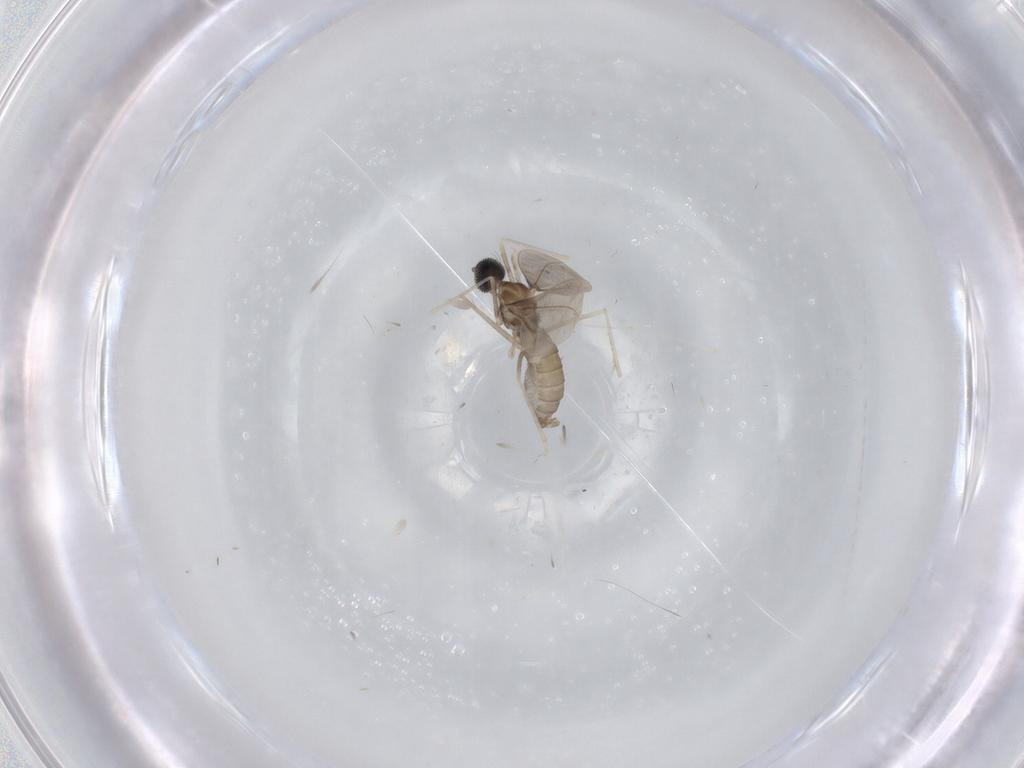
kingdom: Animalia
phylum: Arthropoda
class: Insecta
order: Diptera
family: Cecidomyiidae
